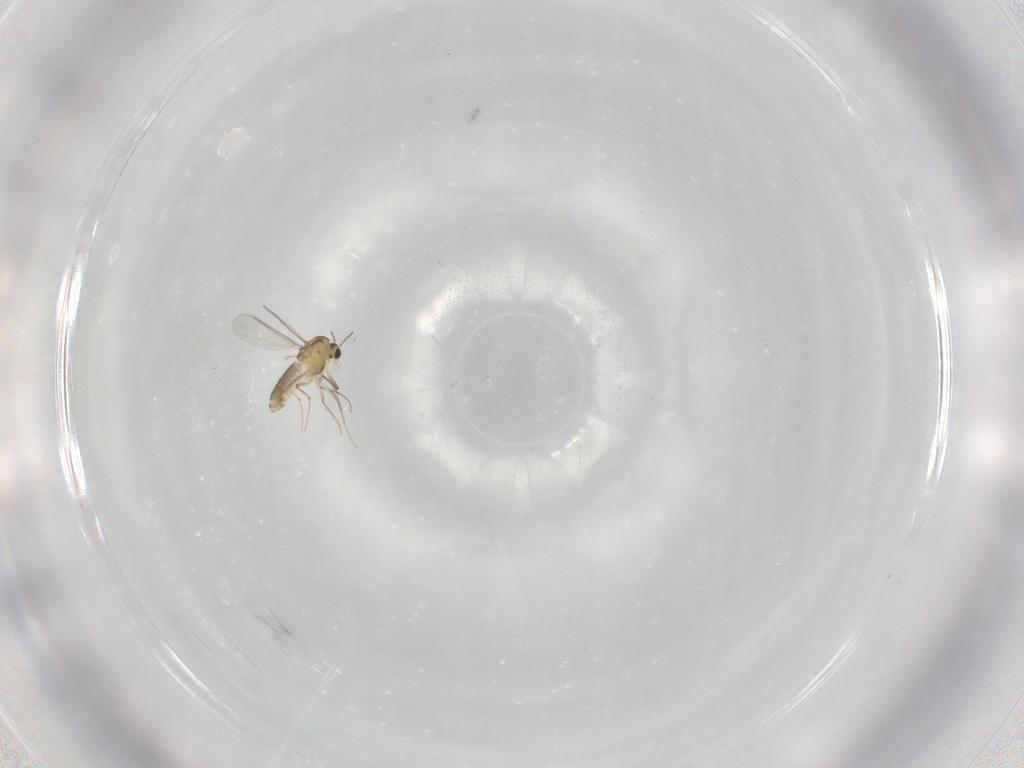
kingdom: Animalia
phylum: Arthropoda
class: Insecta
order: Diptera
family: Chironomidae
